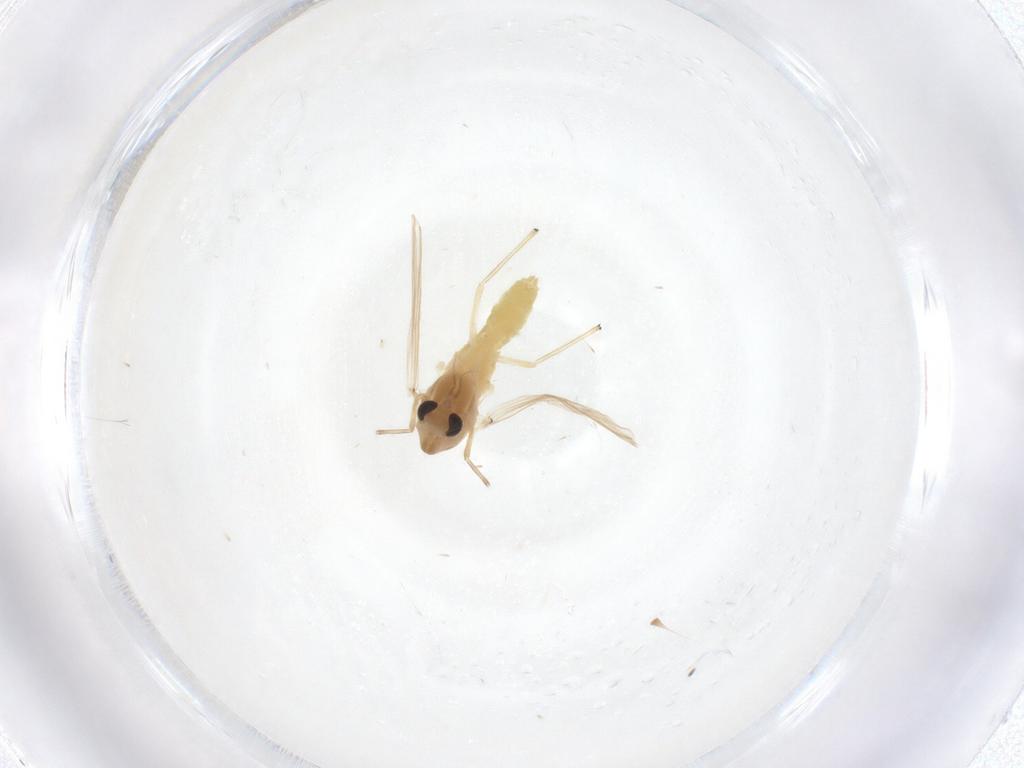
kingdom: Animalia
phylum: Arthropoda
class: Insecta
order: Diptera
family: Chironomidae
